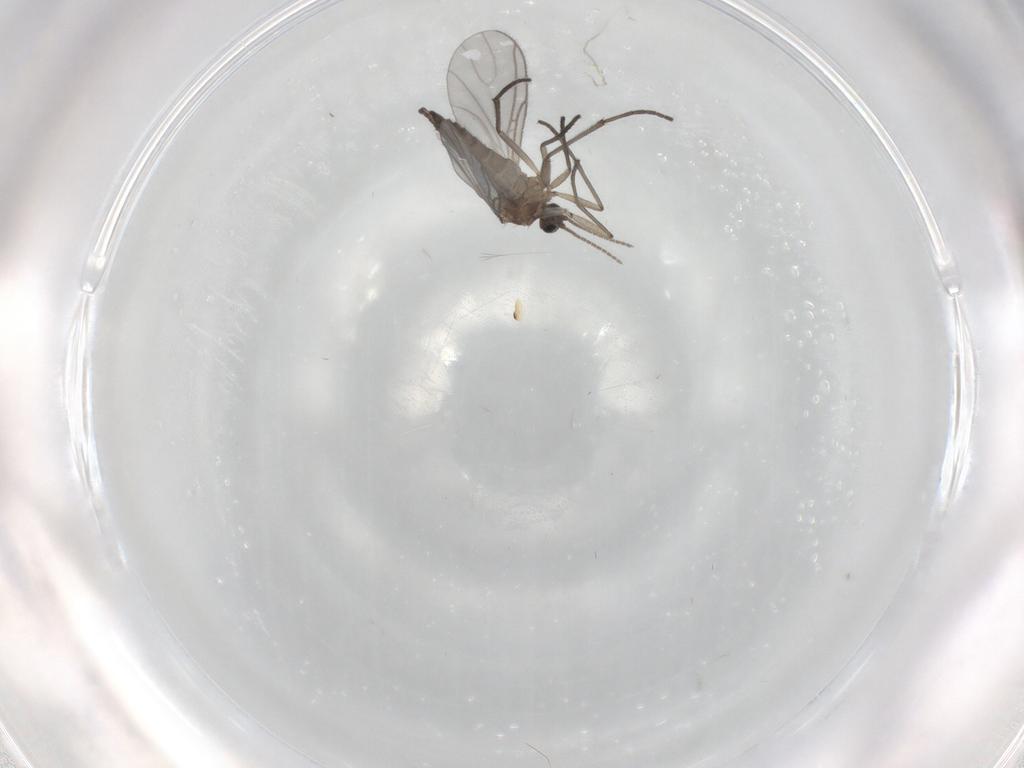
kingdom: Animalia
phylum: Arthropoda
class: Insecta
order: Diptera
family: Sciaridae
